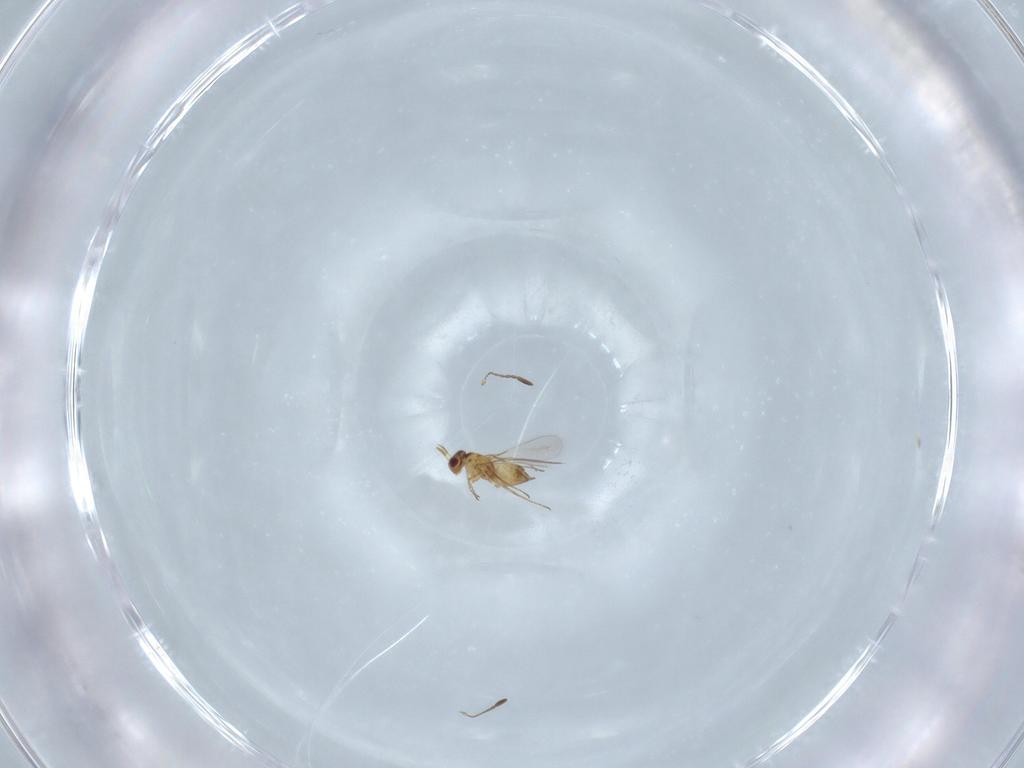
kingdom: Animalia
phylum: Arthropoda
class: Insecta
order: Hymenoptera
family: Mymaridae
